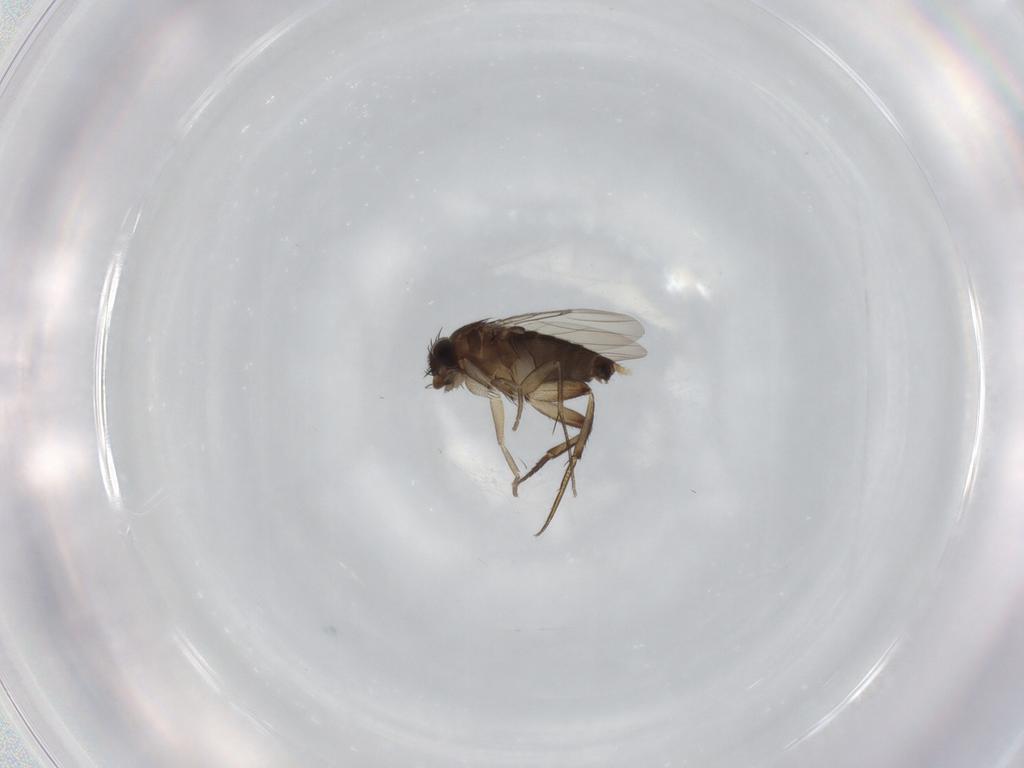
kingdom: Animalia
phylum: Arthropoda
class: Insecta
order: Diptera
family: Phoridae
